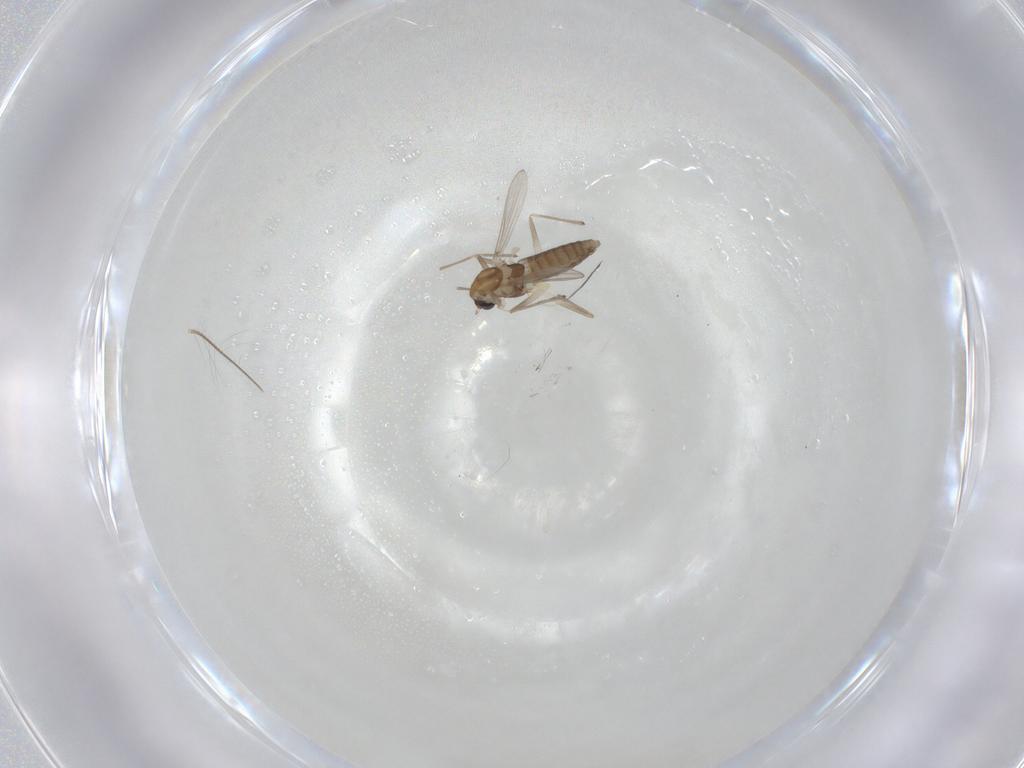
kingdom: Animalia
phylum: Arthropoda
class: Insecta
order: Diptera
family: Chironomidae
